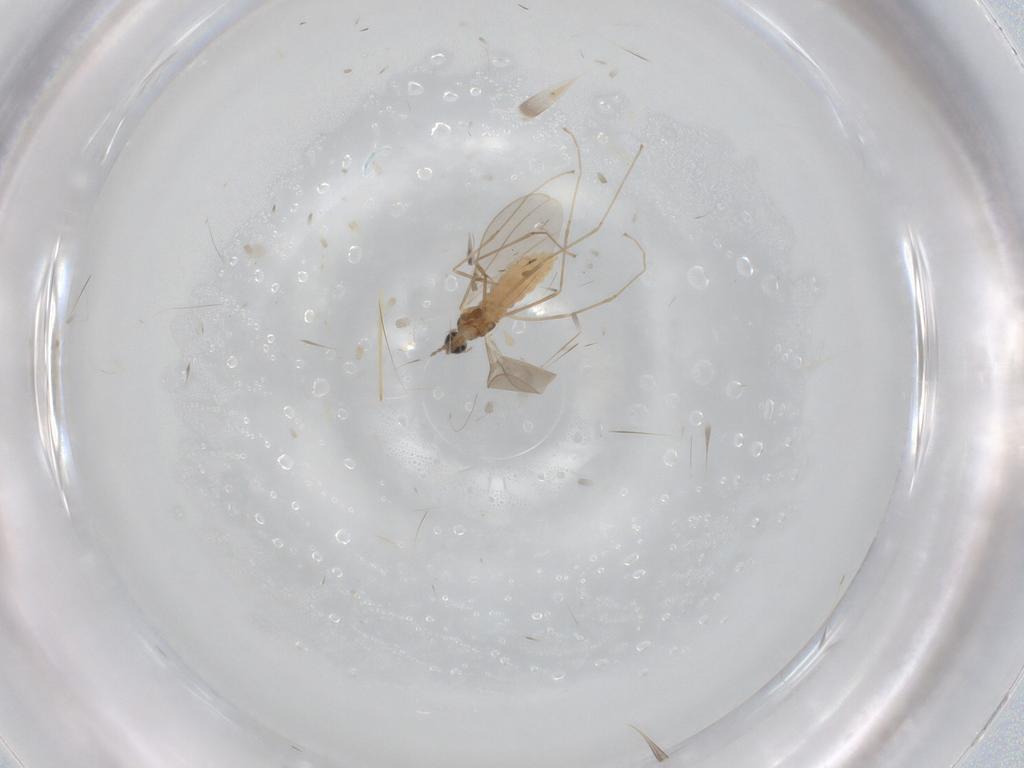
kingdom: Animalia
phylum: Arthropoda
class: Insecta
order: Diptera
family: Cecidomyiidae
